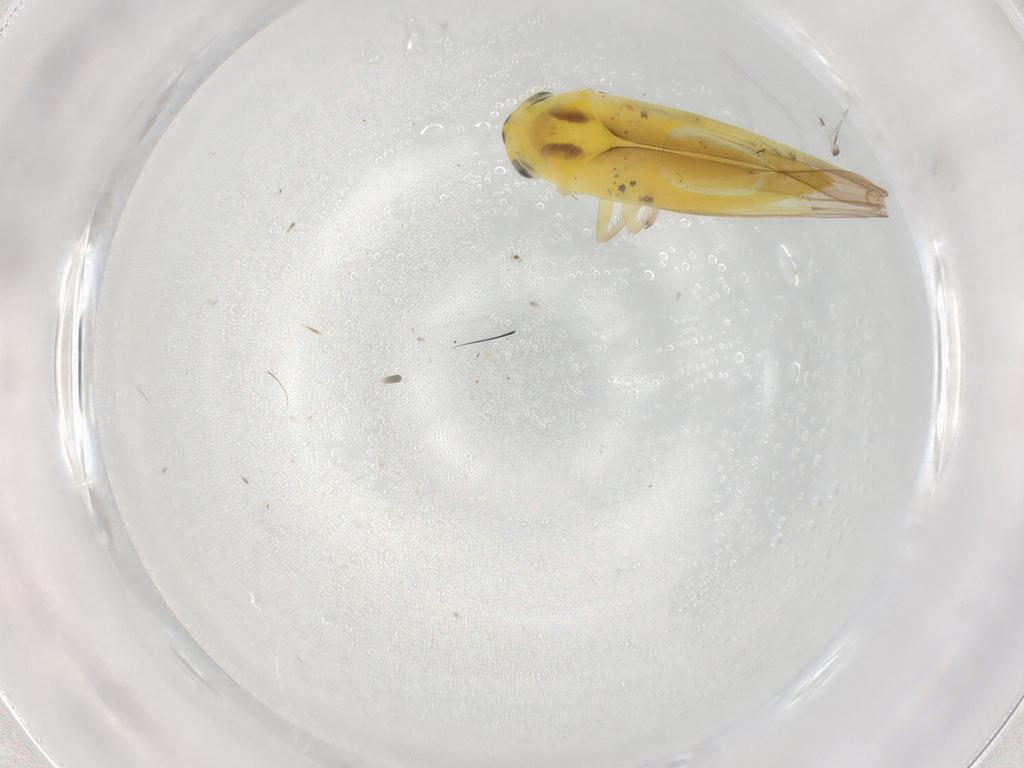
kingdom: Animalia
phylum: Arthropoda
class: Insecta
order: Hemiptera
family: Cicadellidae
